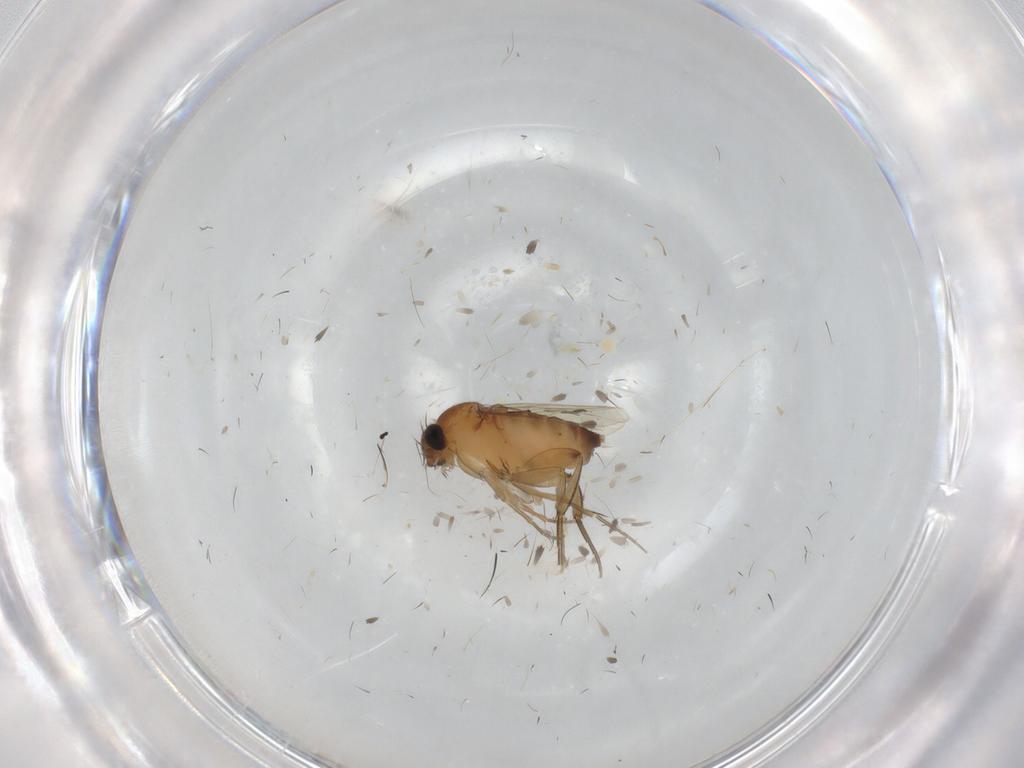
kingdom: Animalia
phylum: Arthropoda
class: Insecta
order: Diptera
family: Cecidomyiidae
